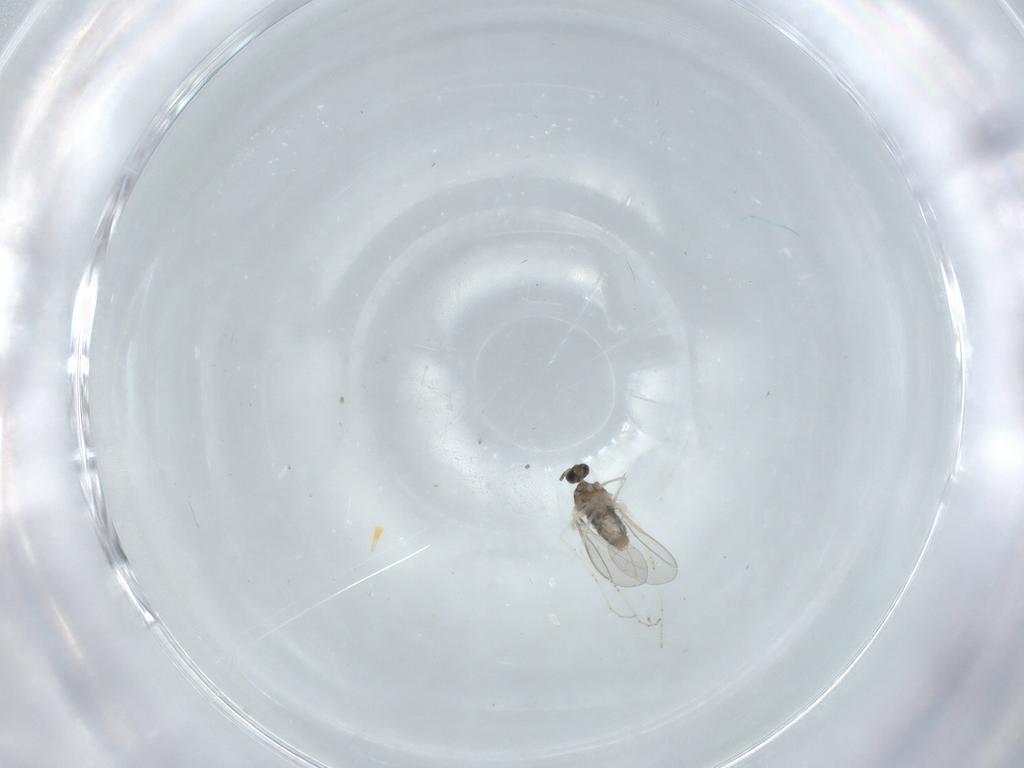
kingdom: Animalia
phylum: Arthropoda
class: Insecta
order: Diptera
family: Cecidomyiidae
